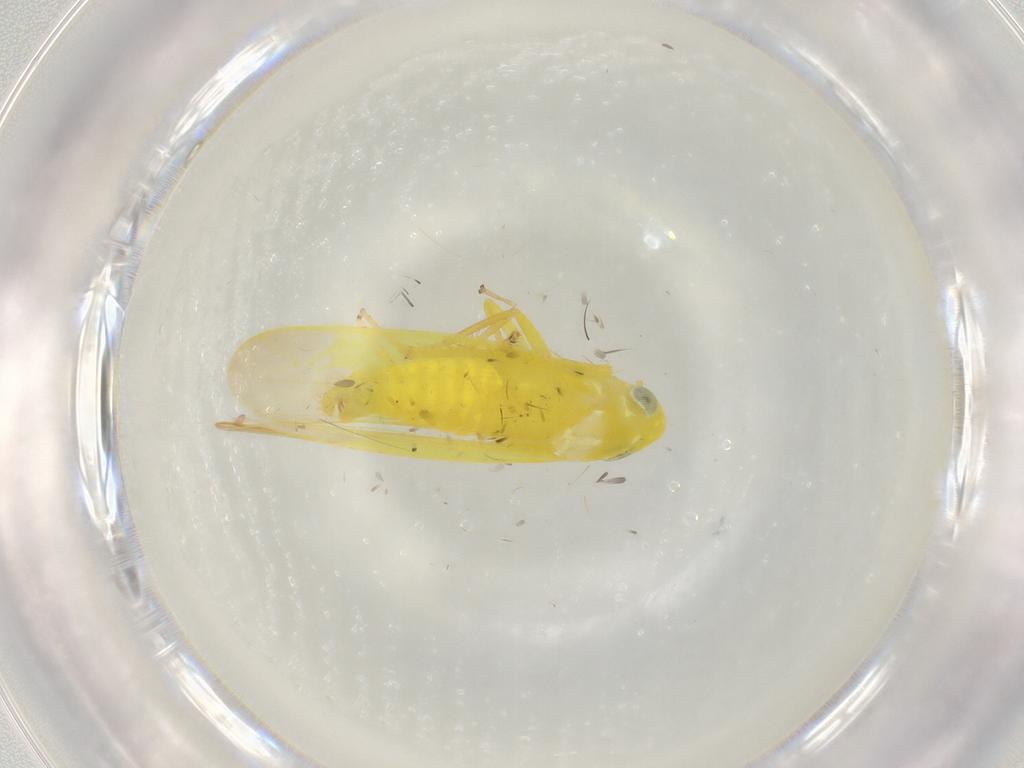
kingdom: Animalia
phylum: Arthropoda
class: Insecta
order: Hemiptera
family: Cicadellidae
